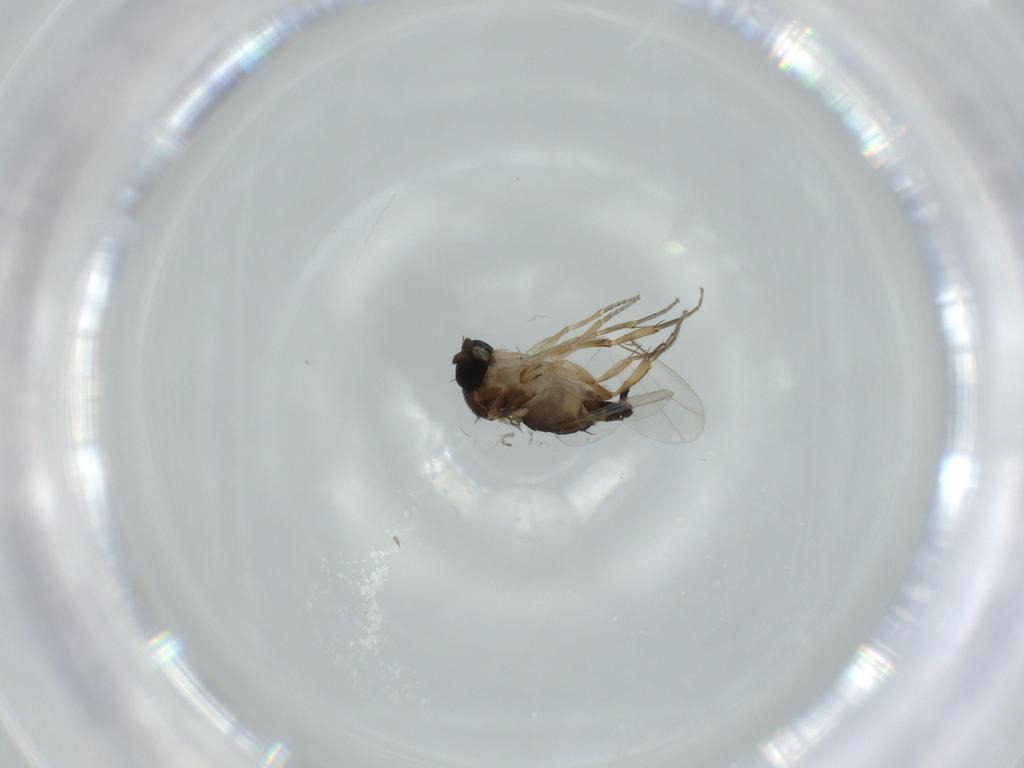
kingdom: Animalia
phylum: Arthropoda
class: Insecta
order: Diptera
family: Phoridae
